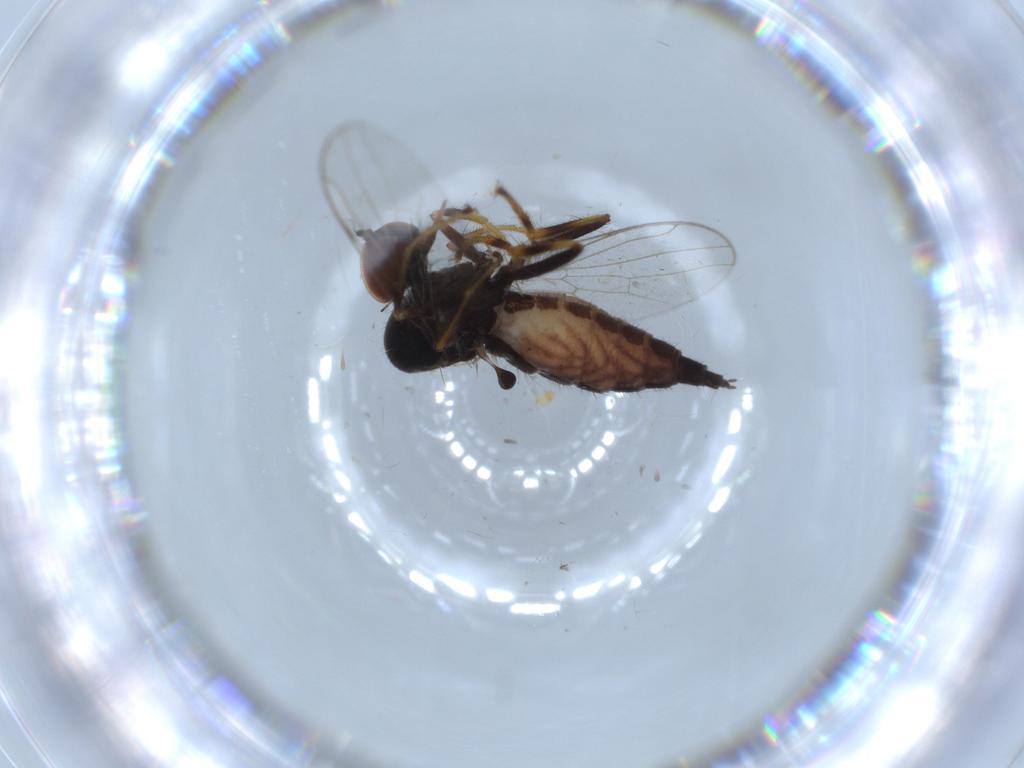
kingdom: Animalia
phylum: Arthropoda
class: Insecta
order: Diptera
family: Hybotidae
